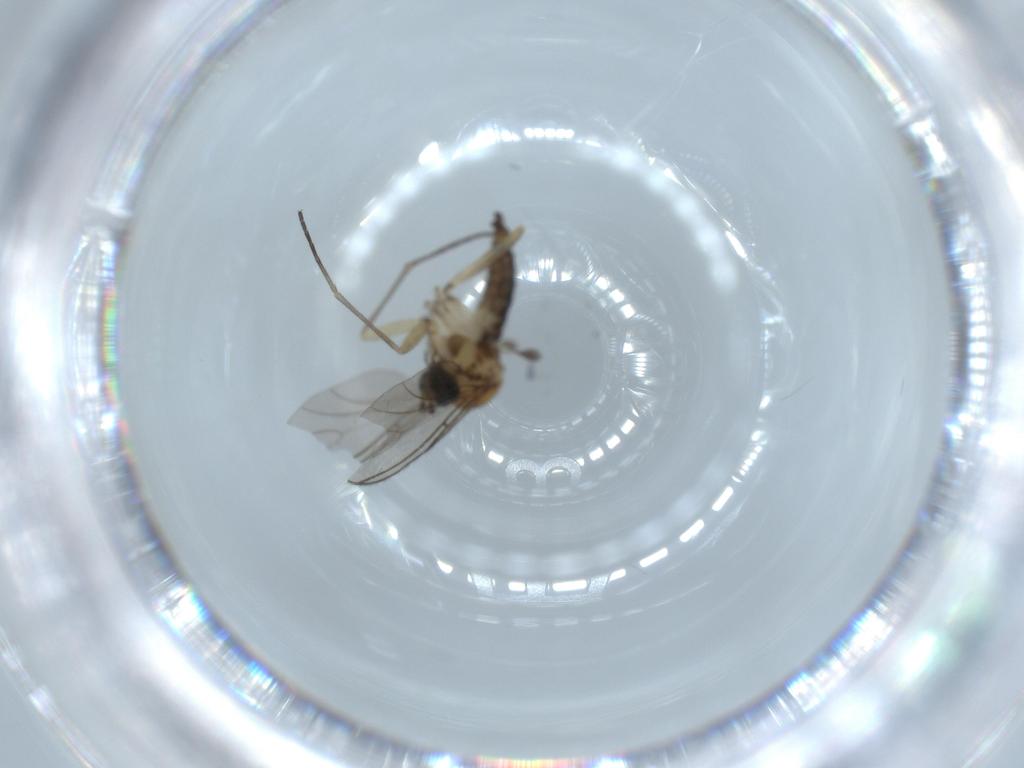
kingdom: Animalia
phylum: Arthropoda
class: Insecta
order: Diptera
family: Sciaridae
